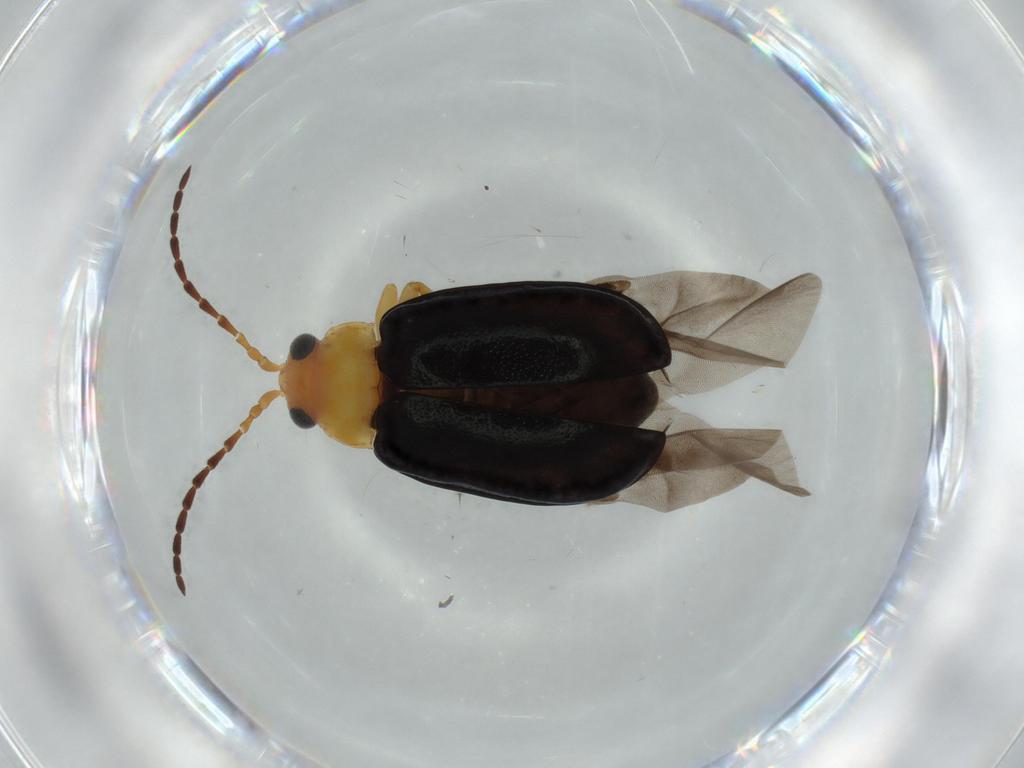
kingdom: Animalia
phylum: Arthropoda
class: Insecta
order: Coleoptera
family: Chrysomelidae
